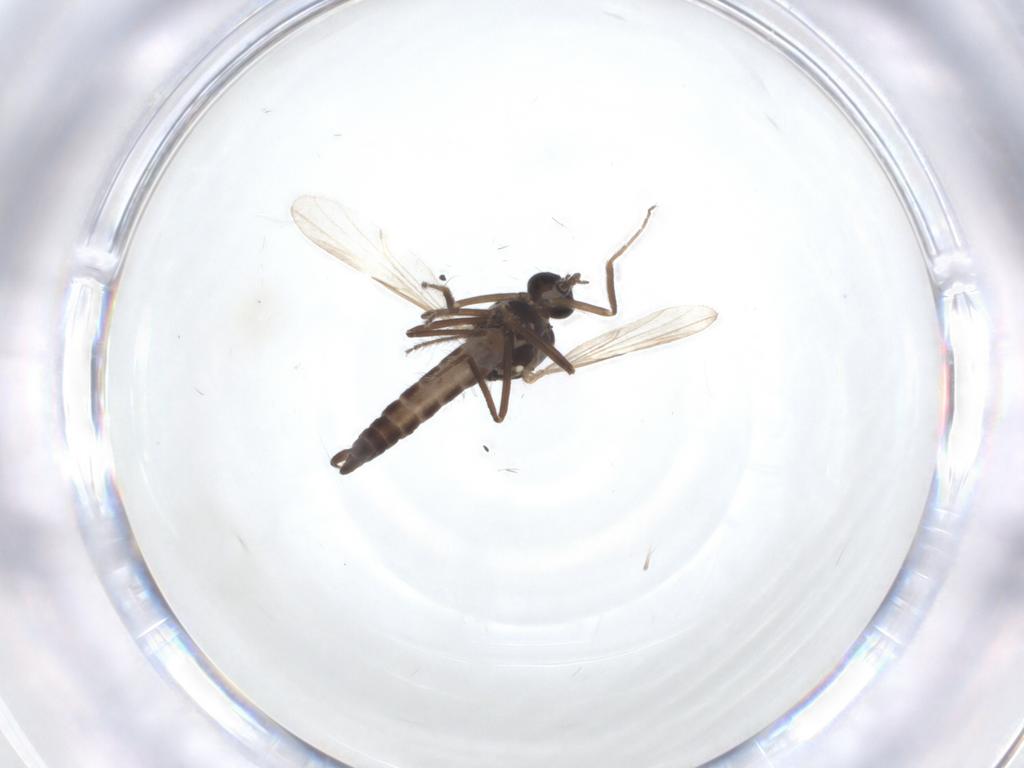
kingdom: Animalia
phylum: Arthropoda
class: Insecta
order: Diptera
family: Ceratopogonidae
